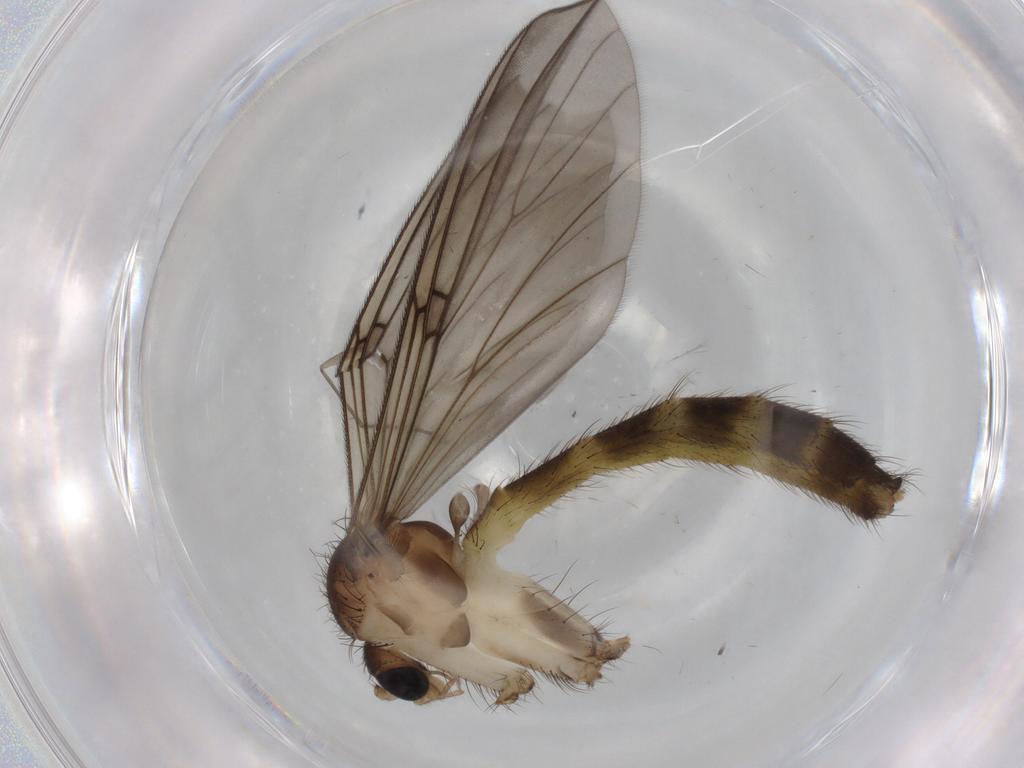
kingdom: Animalia
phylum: Arthropoda
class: Insecta
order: Diptera
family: Cecidomyiidae
